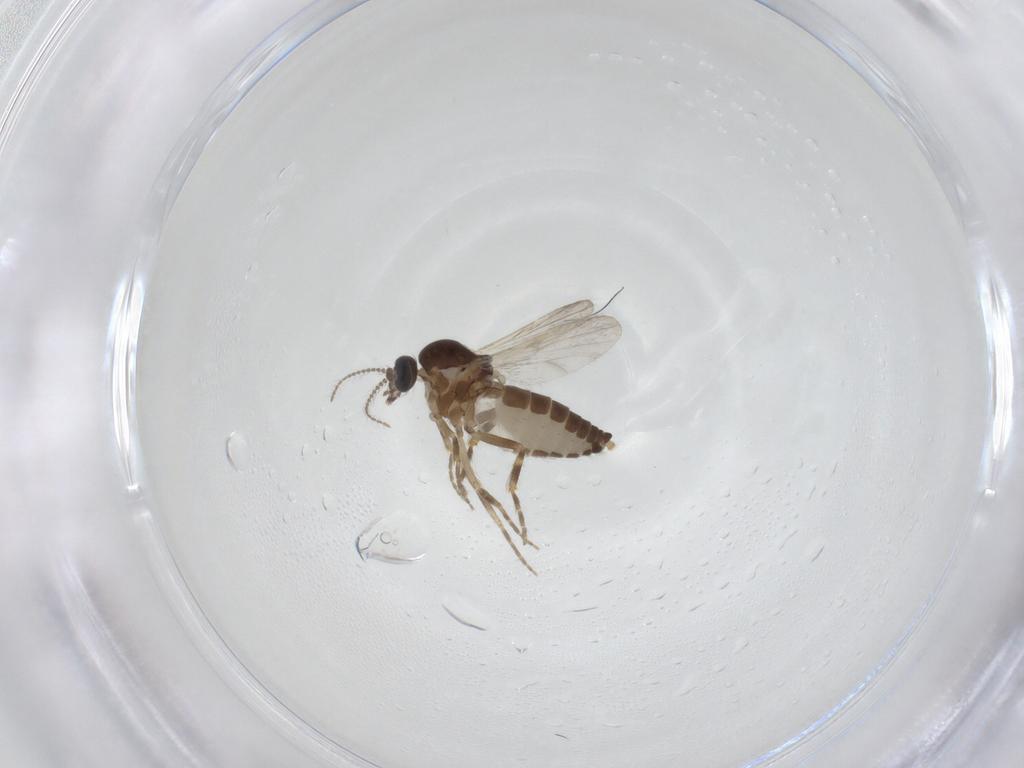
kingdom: Animalia
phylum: Arthropoda
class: Insecta
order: Diptera
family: Ceratopogonidae
